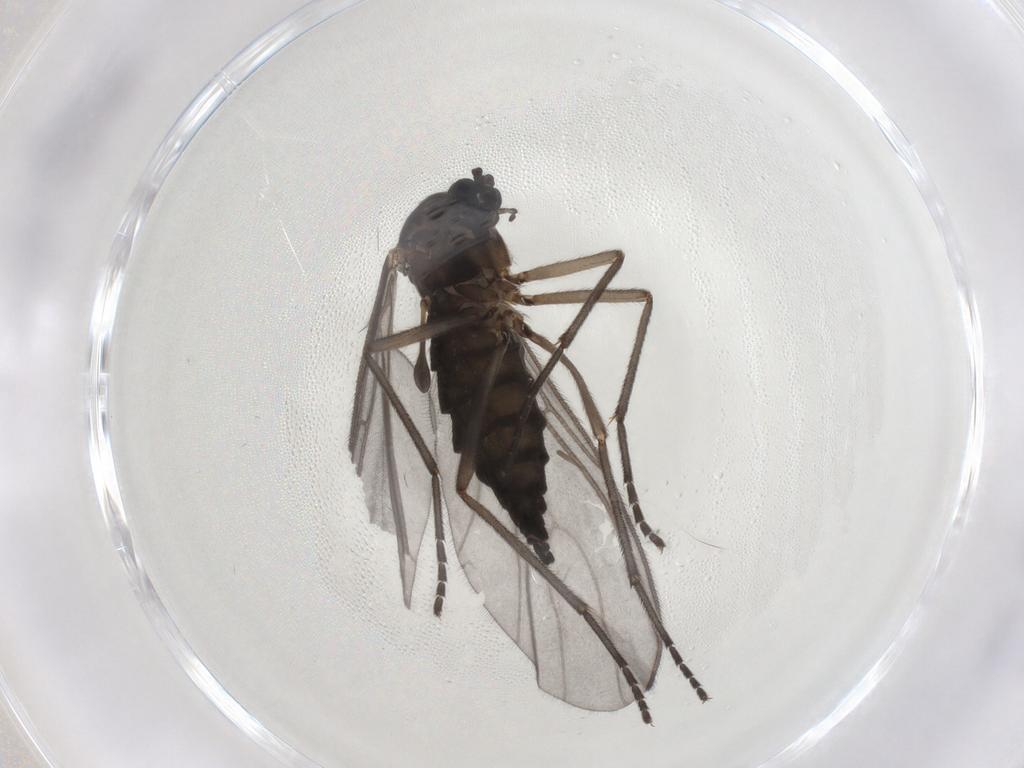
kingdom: Animalia
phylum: Arthropoda
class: Insecta
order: Diptera
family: Sciaridae
